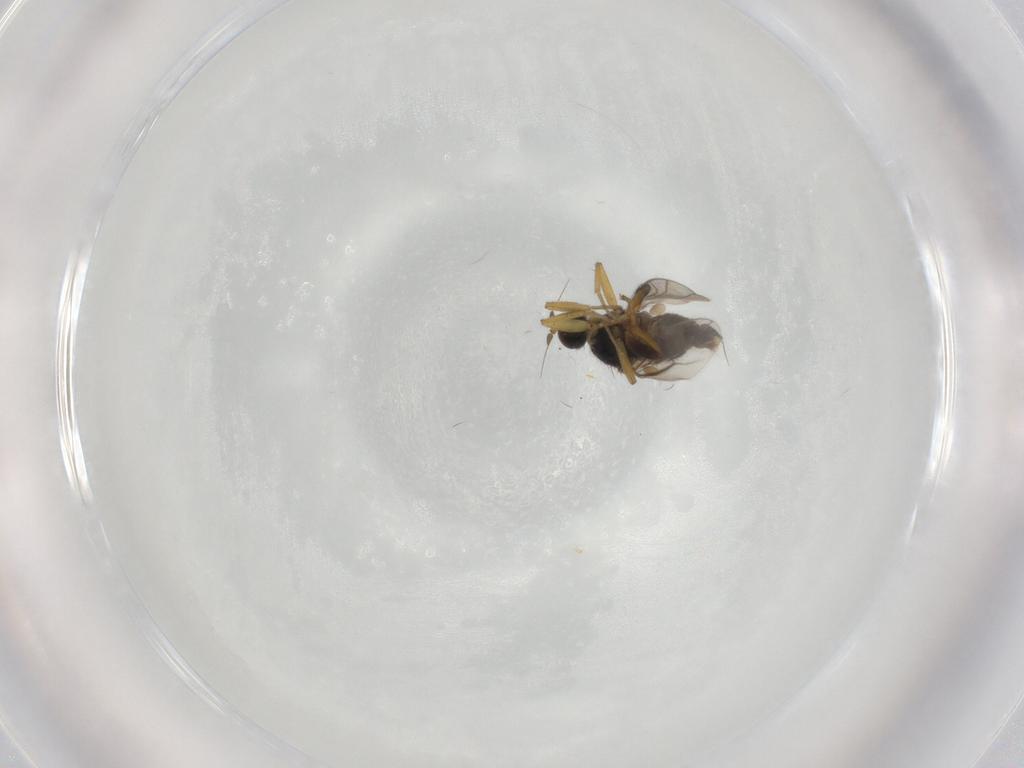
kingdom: Animalia
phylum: Arthropoda
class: Insecta
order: Diptera
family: Hybotidae
